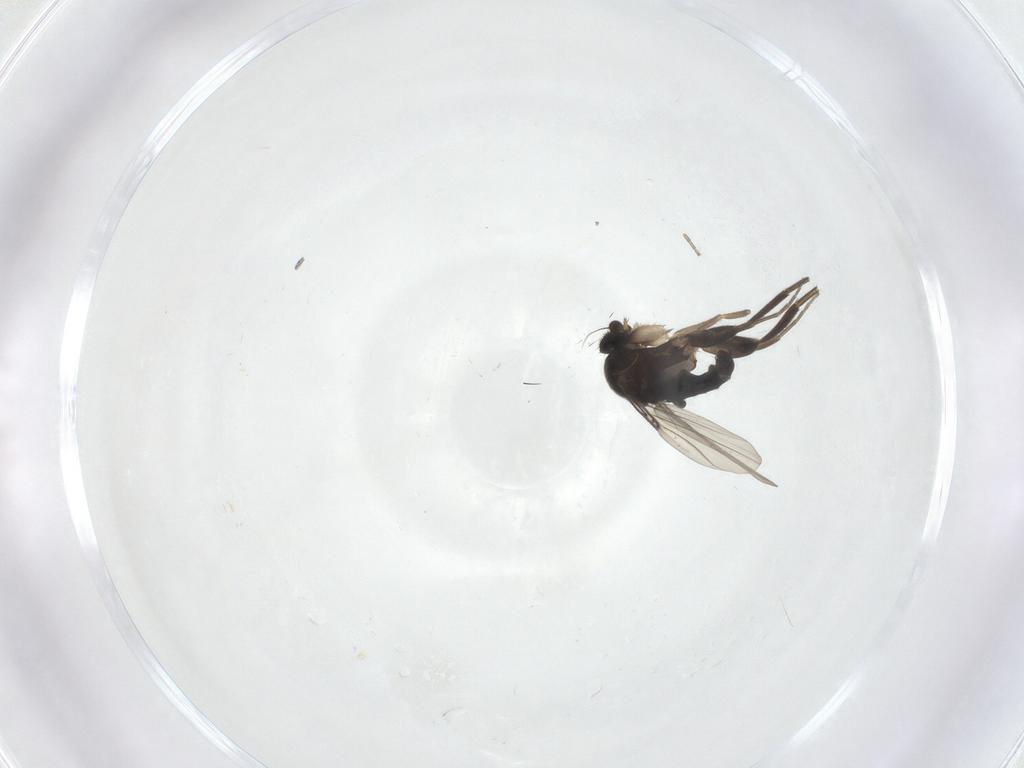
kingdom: Animalia
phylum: Arthropoda
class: Insecta
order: Diptera
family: Phoridae
